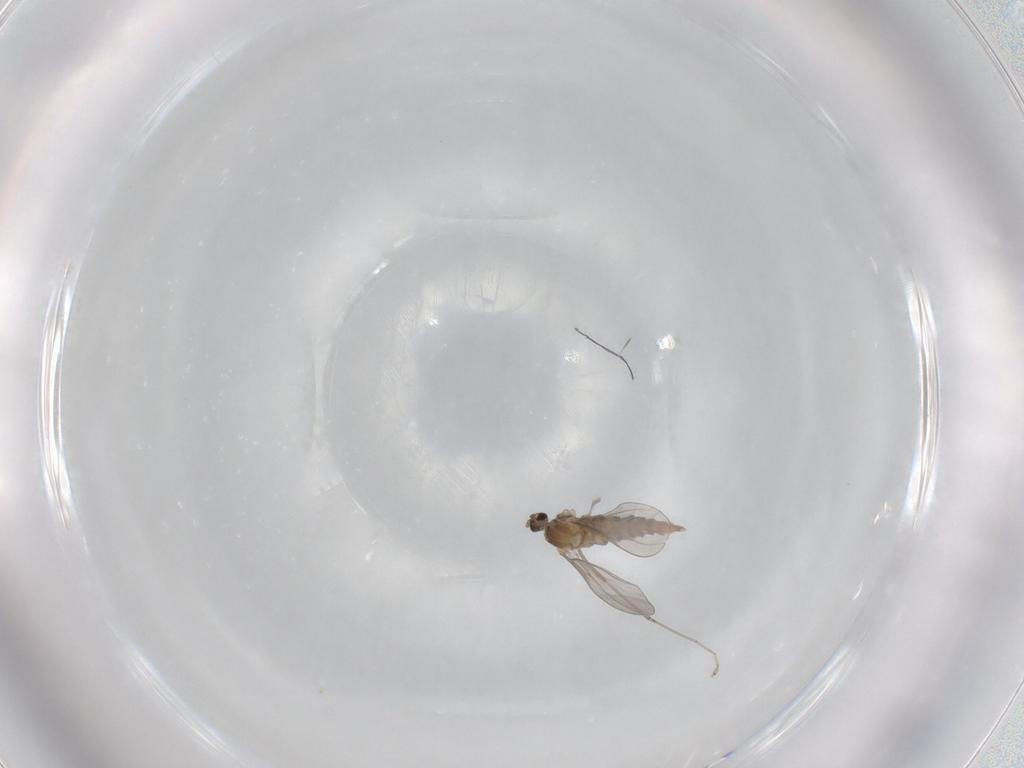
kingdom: Animalia
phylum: Arthropoda
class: Insecta
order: Diptera
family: Cecidomyiidae
